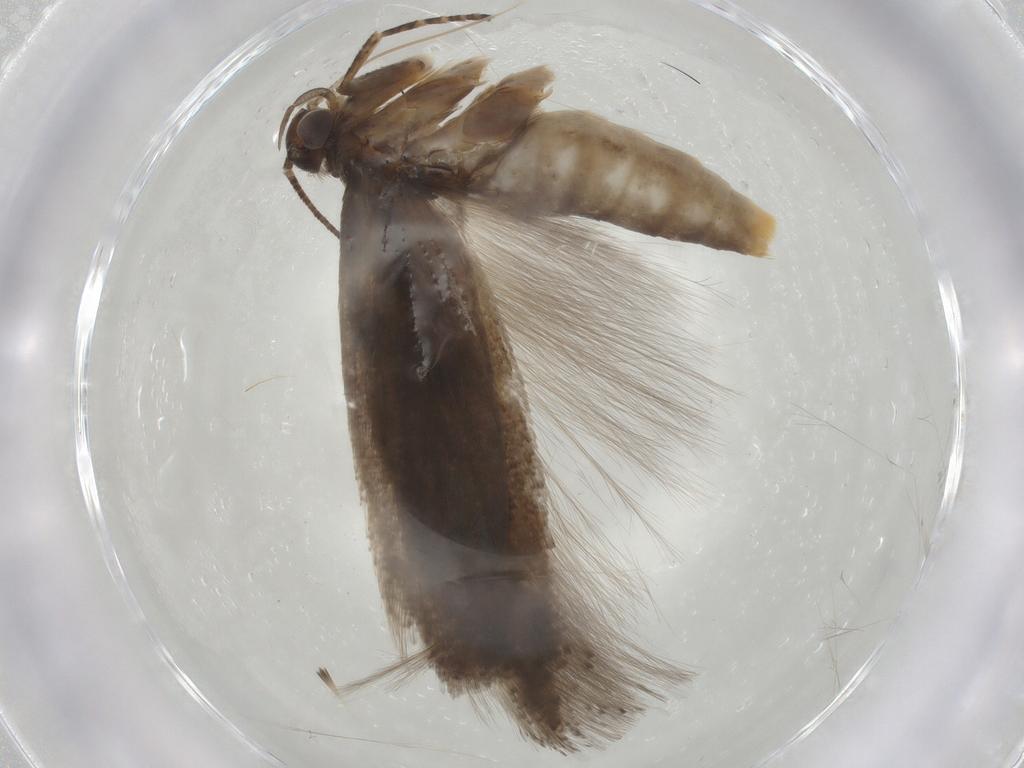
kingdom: Animalia
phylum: Arthropoda
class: Insecta
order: Lepidoptera
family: Gelechiidae
